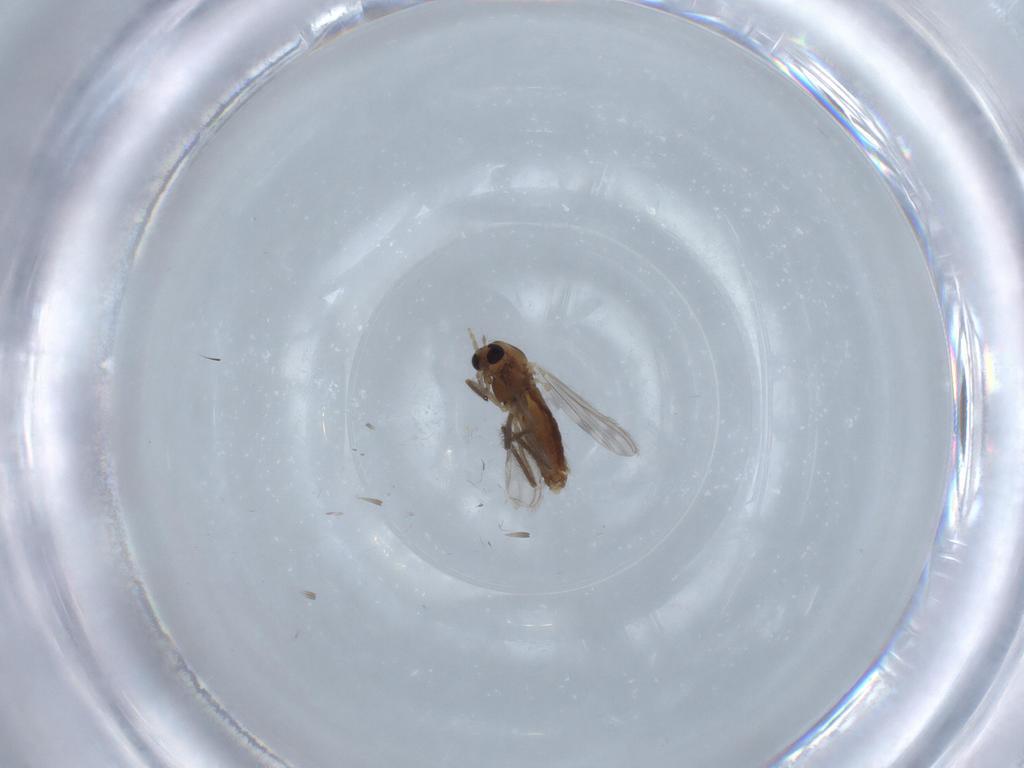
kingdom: Animalia
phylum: Arthropoda
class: Insecta
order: Diptera
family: Chironomidae
